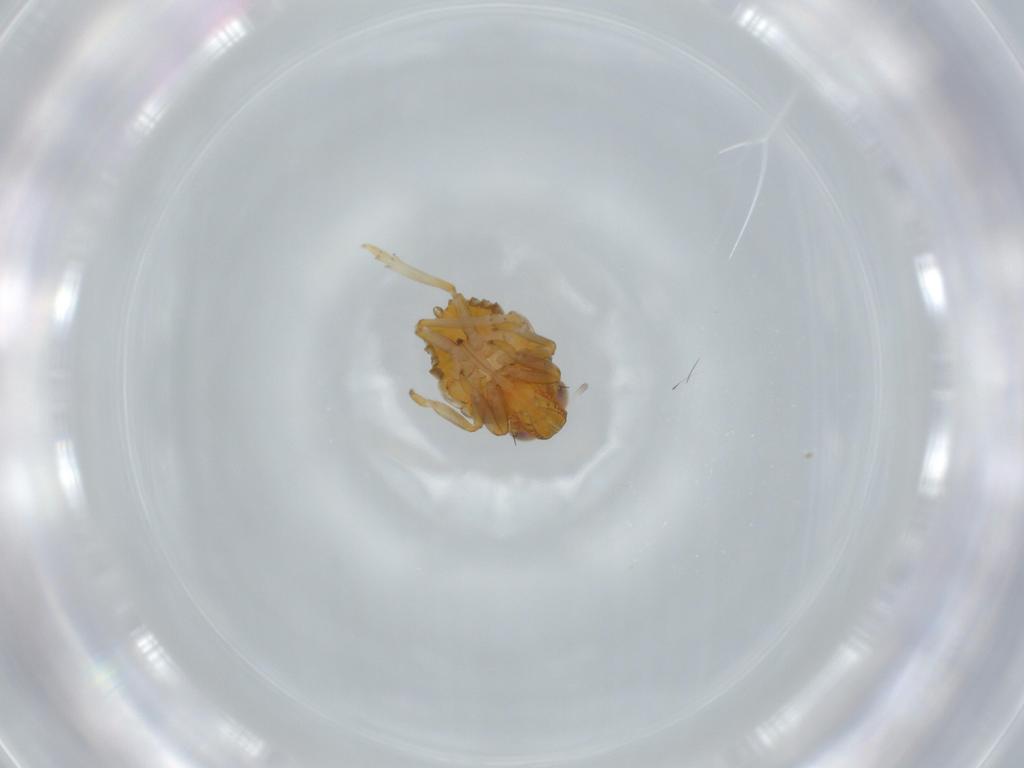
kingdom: Animalia
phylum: Arthropoda
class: Insecta
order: Hemiptera
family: Issidae
